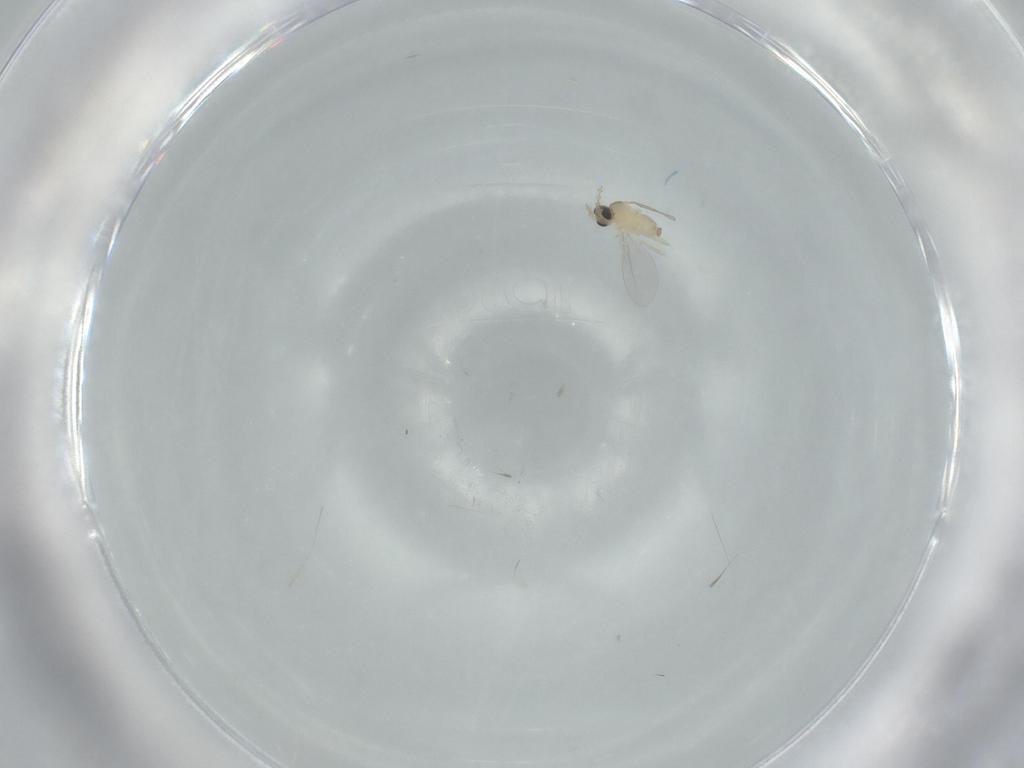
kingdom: Animalia
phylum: Arthropoda
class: Insecta
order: Diptera
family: Cecidomyiidae
